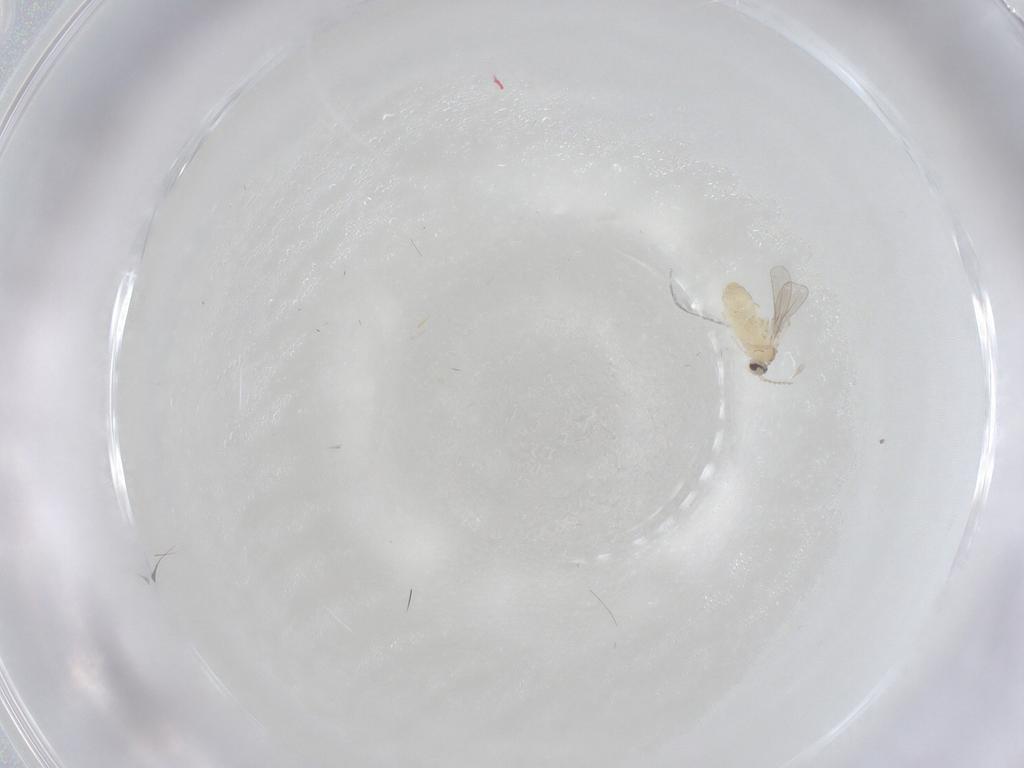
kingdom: Animalia
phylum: Arthropoda
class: Insecta
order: Diptera
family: Cecidomyiidae
